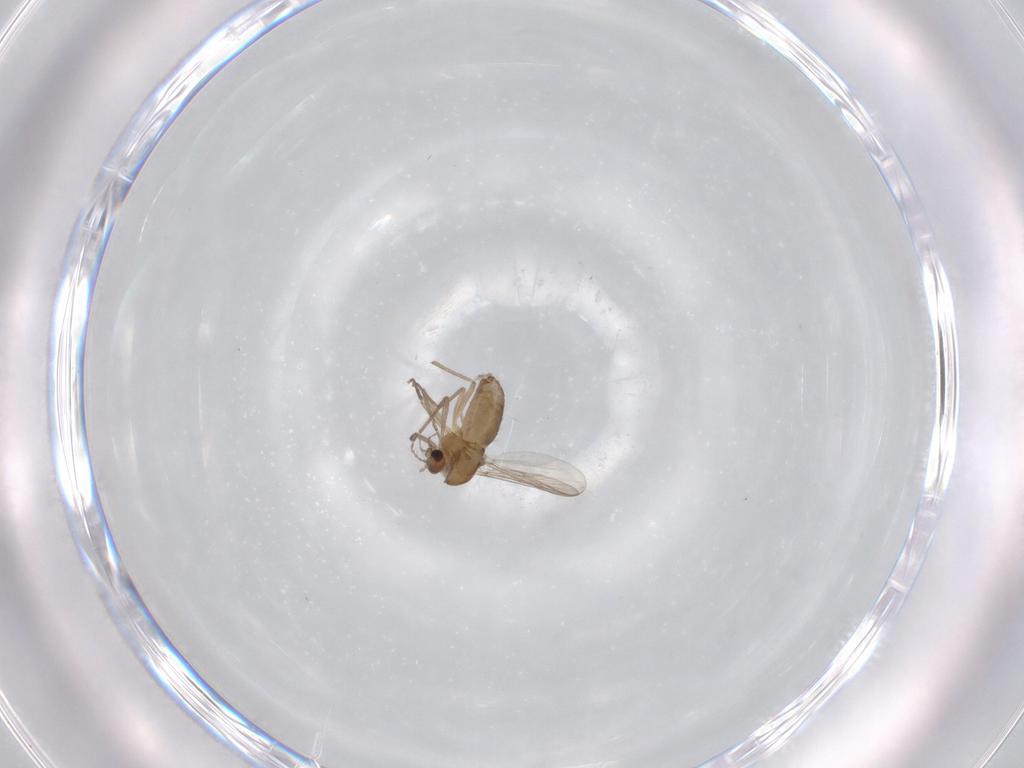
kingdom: Animalia
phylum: Arthropoda
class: Insecta
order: Diptera
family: Chironomidae
